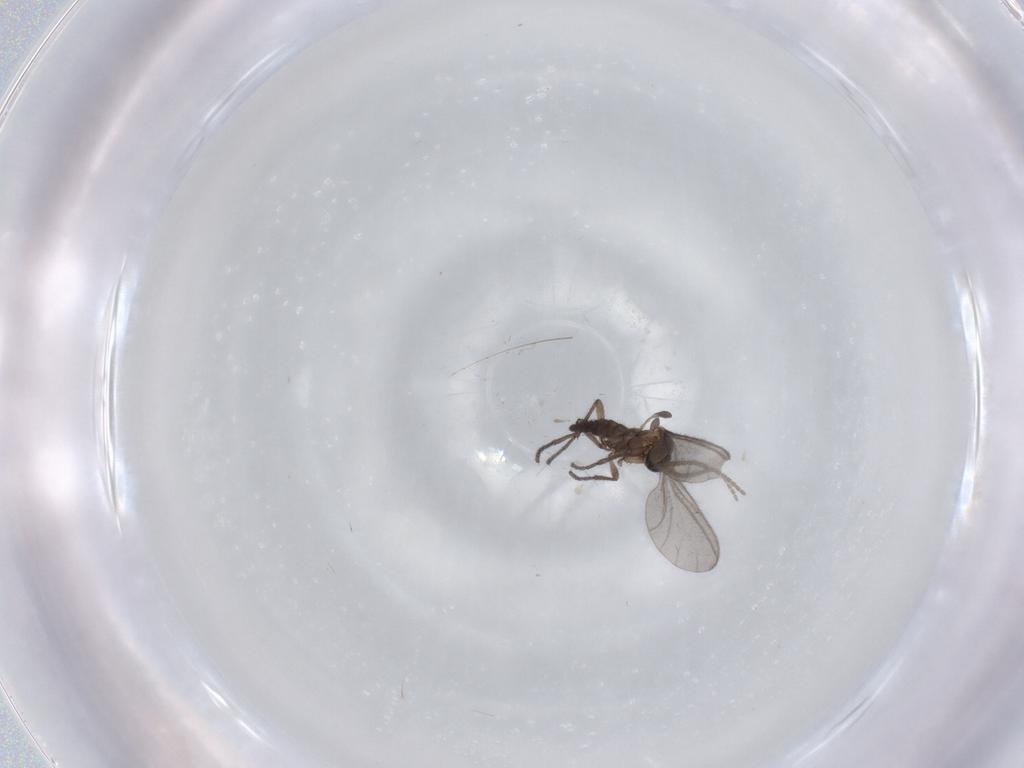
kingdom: Animalia
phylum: Arthropoda
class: Insecta
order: Diptera
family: Sciaridae
